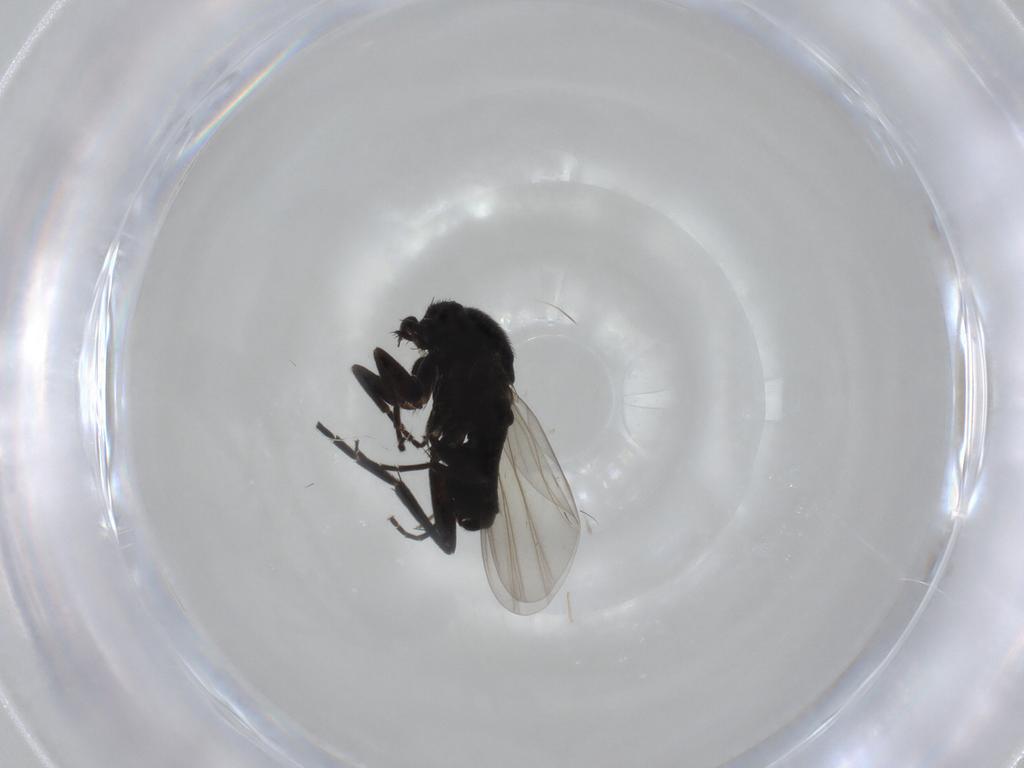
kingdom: Animalia
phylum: Arthropoda
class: Insecta
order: Diptera
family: Phoridae
